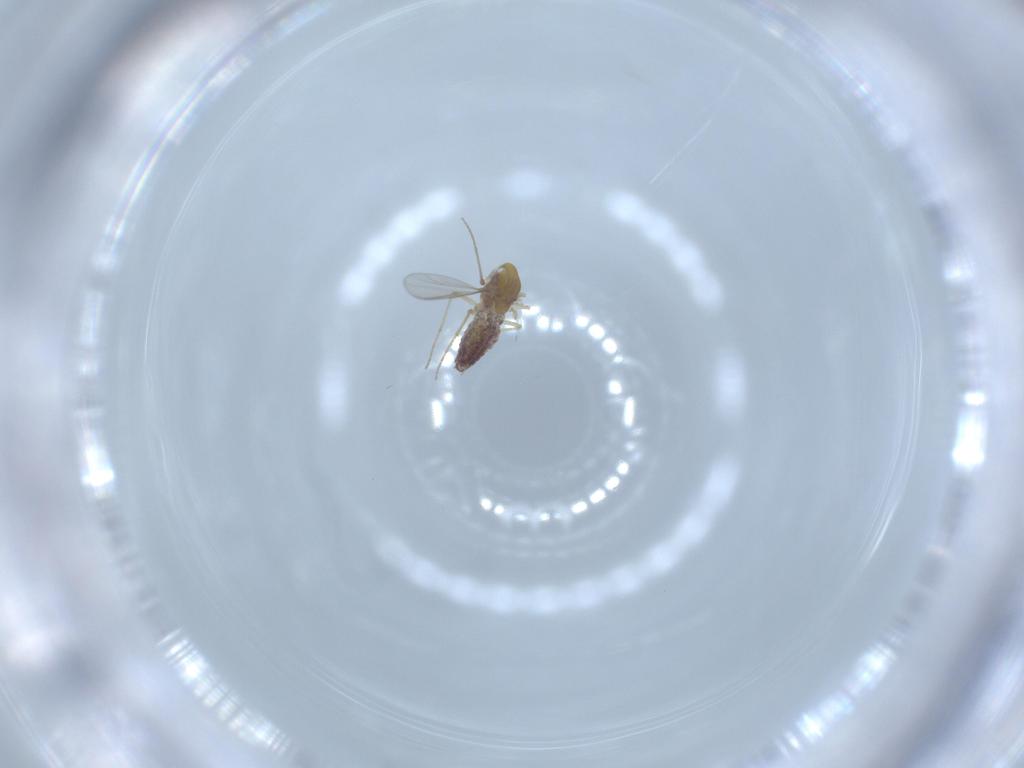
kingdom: Animalia
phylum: Arthropoda
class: Insecta
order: Diptera
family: Chironomidae
